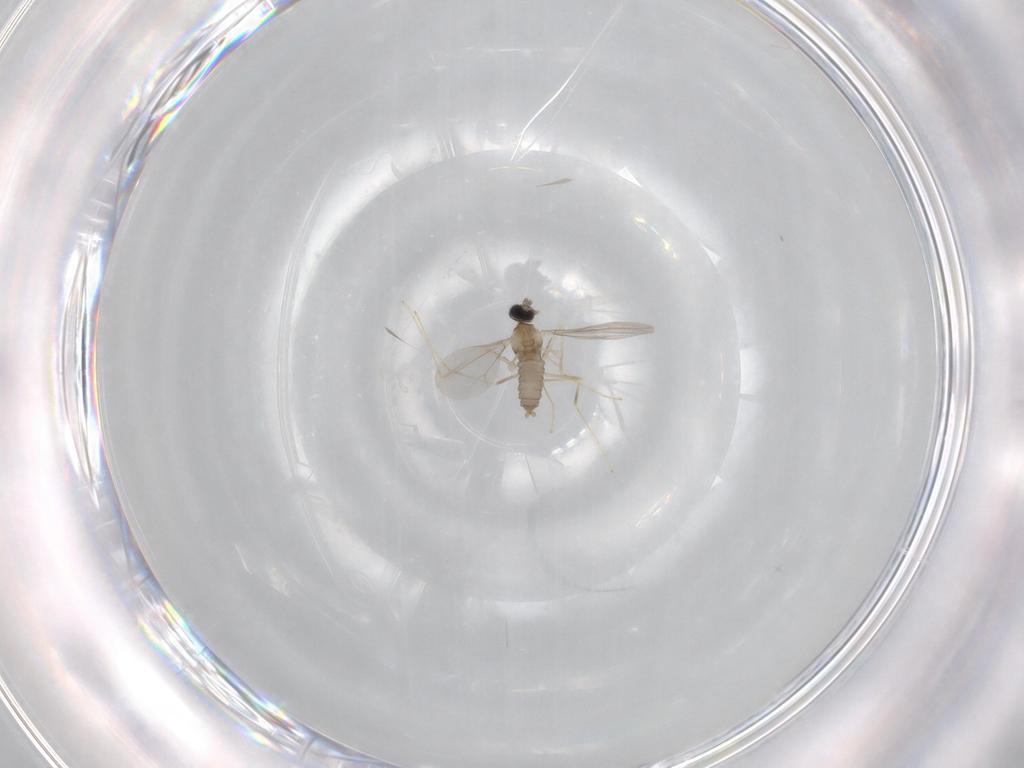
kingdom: Animalia
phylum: Arthropoda
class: Insecta
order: Diptera
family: Cecidomyiidae
